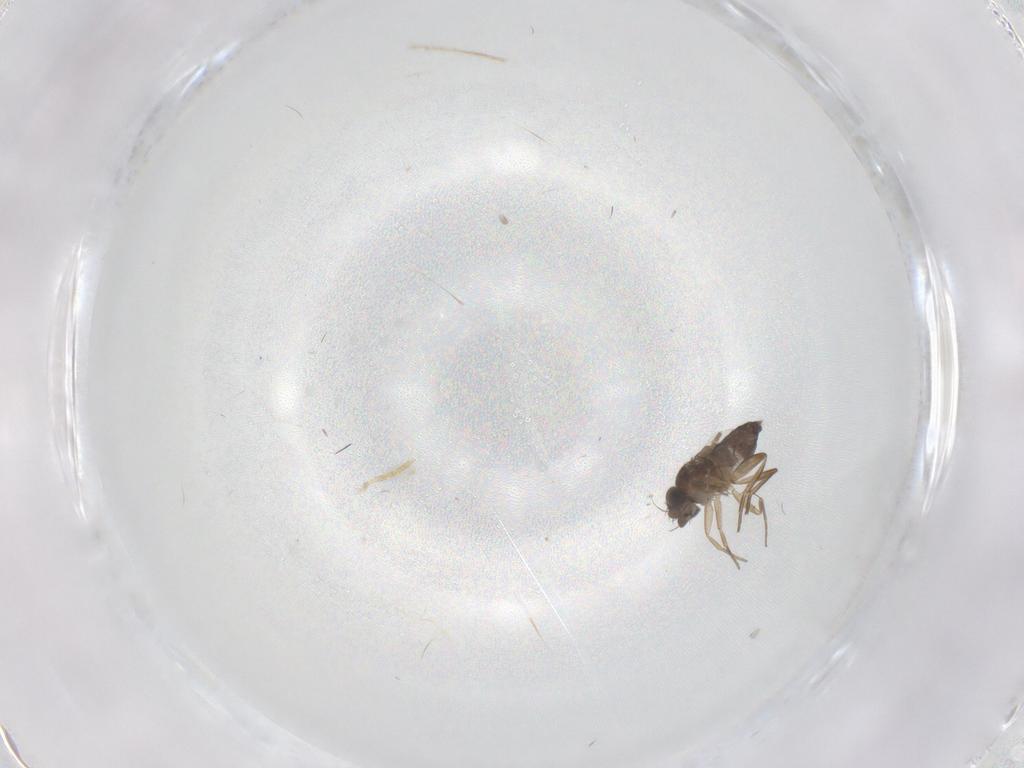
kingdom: Animalia
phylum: Arthropoda
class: Insecta
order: Diptera
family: Sciaridae
